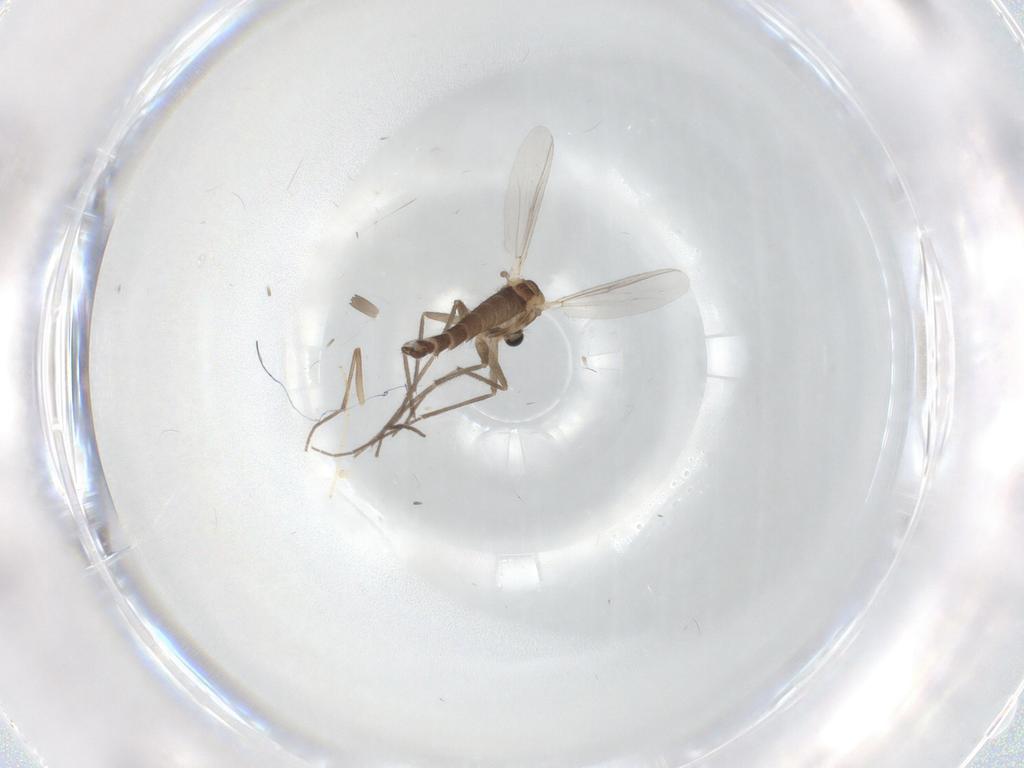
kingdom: Animalia
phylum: Arthropoda
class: Insecta
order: Diptera
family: Chironomidae
